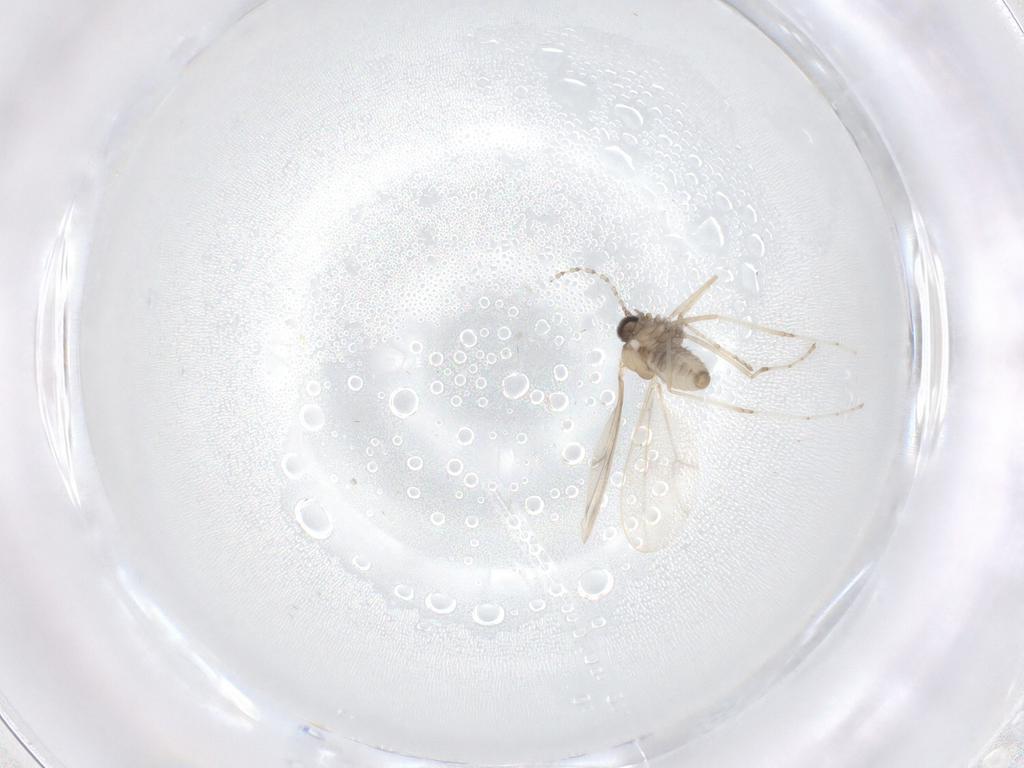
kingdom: Animalia
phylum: Arthropoda
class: Insecta
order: Diptera
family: Cecidomyiidae
